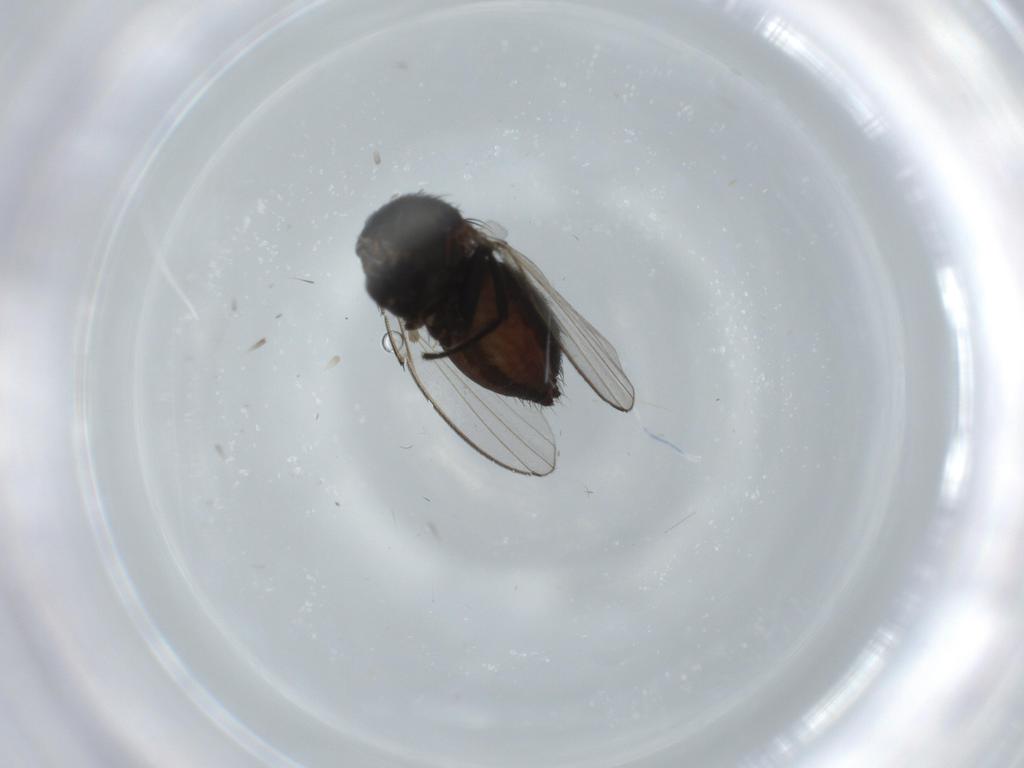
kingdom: Animalia
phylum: Arthropoda
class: Insecta
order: Diptera
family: Milichiidae
